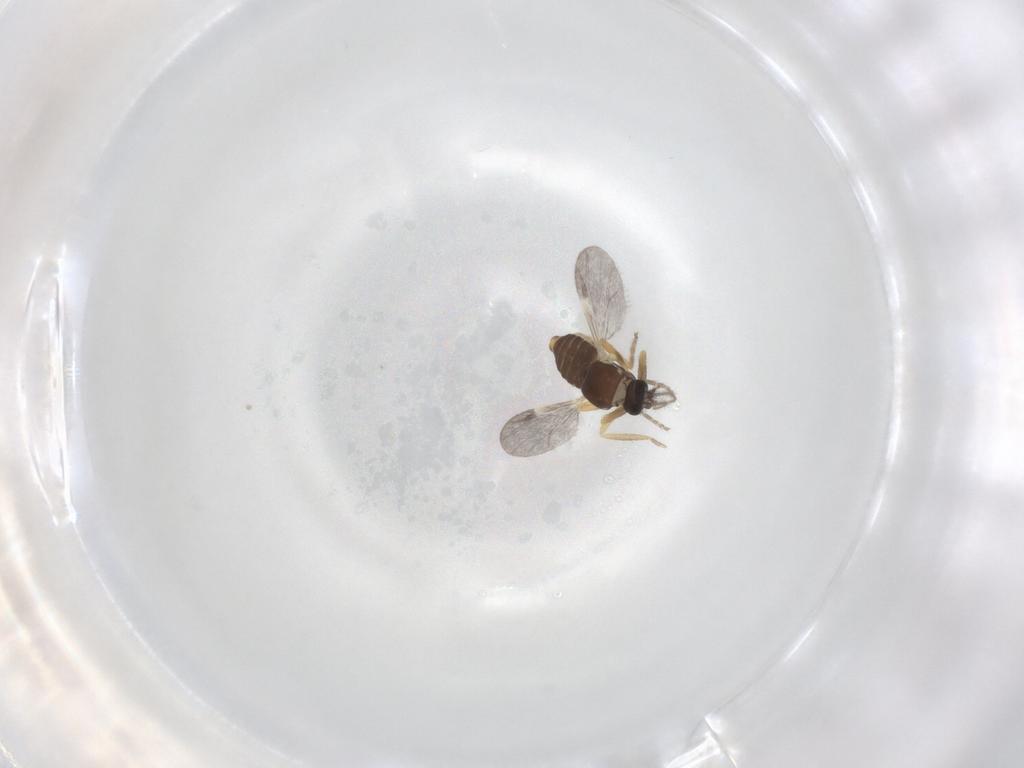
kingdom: Animalia
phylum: Arthropoda
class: Insecta
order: Diptera
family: Ceratopogonidae
